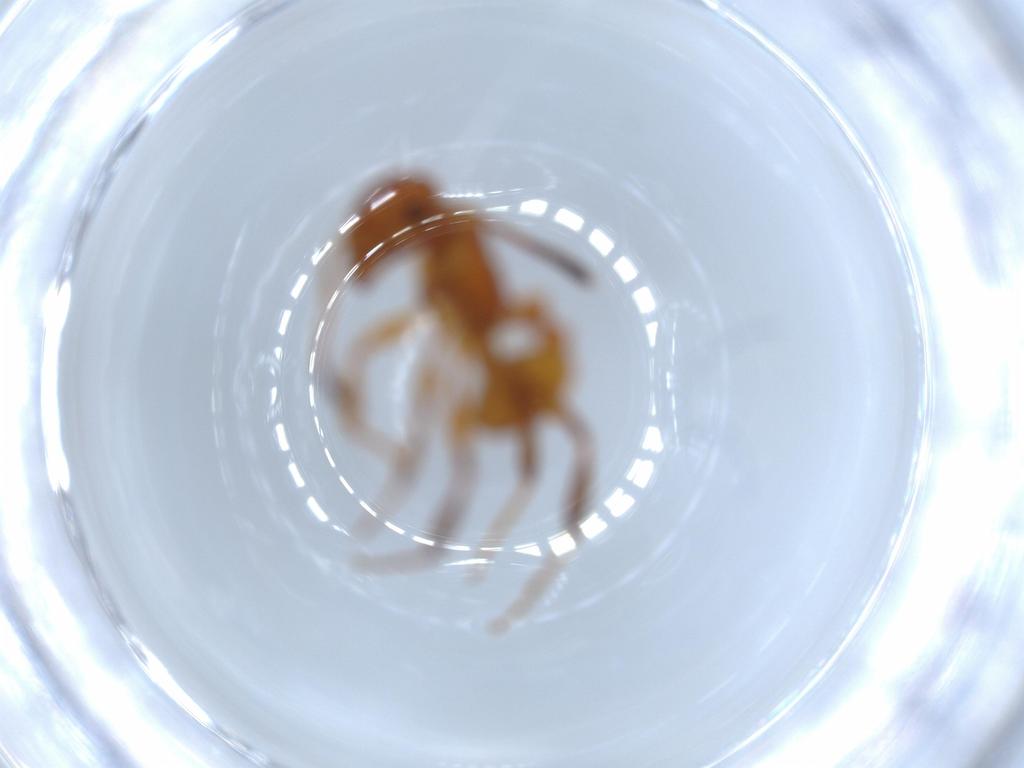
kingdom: Animalia
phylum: Arthropoda
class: Insecta
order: Hymenoptera
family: Formicidae
